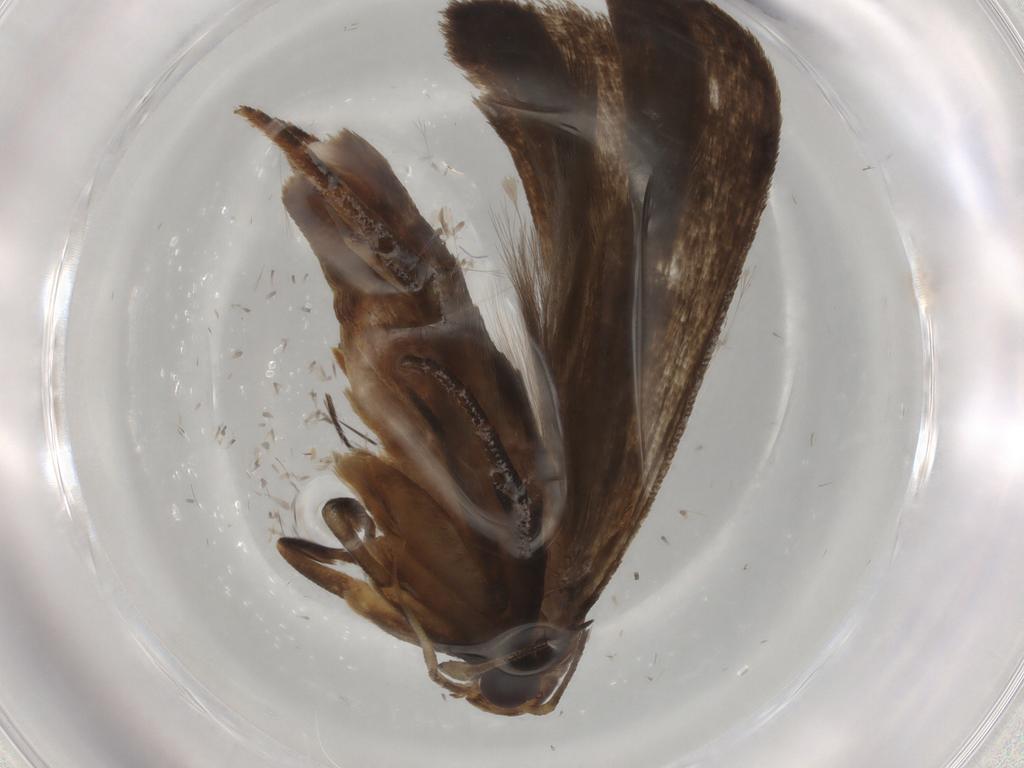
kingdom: Animalia
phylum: Arthropoda
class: Insecta
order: Lepidoptera
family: Gelechiidae
